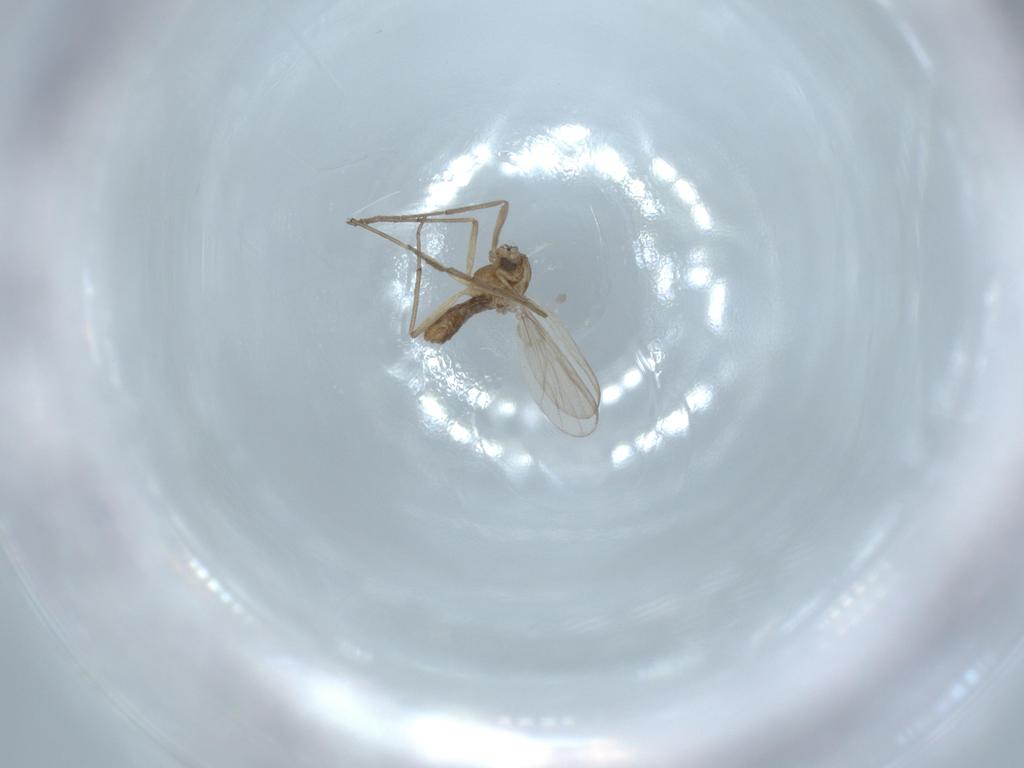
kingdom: Animalia
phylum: Arthropoda
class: Insecta
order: Diptera
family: Chironomidae
